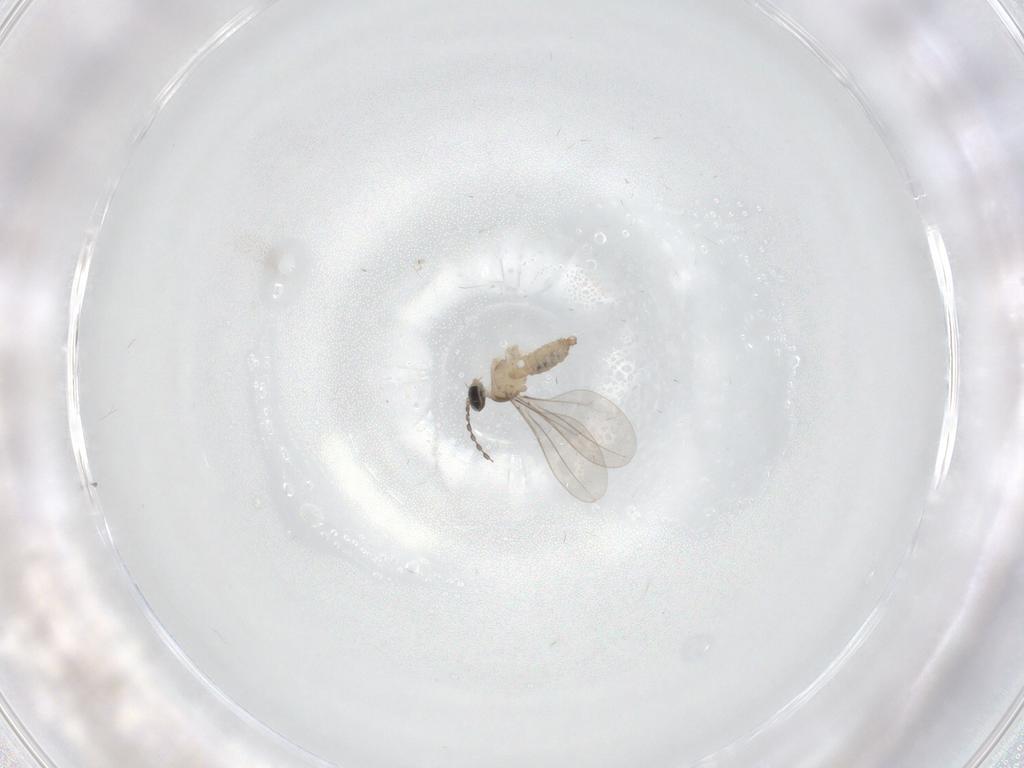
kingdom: Animalia
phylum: Arthropoda
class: Insecta
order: Diptera
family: Cecidomyiidae
